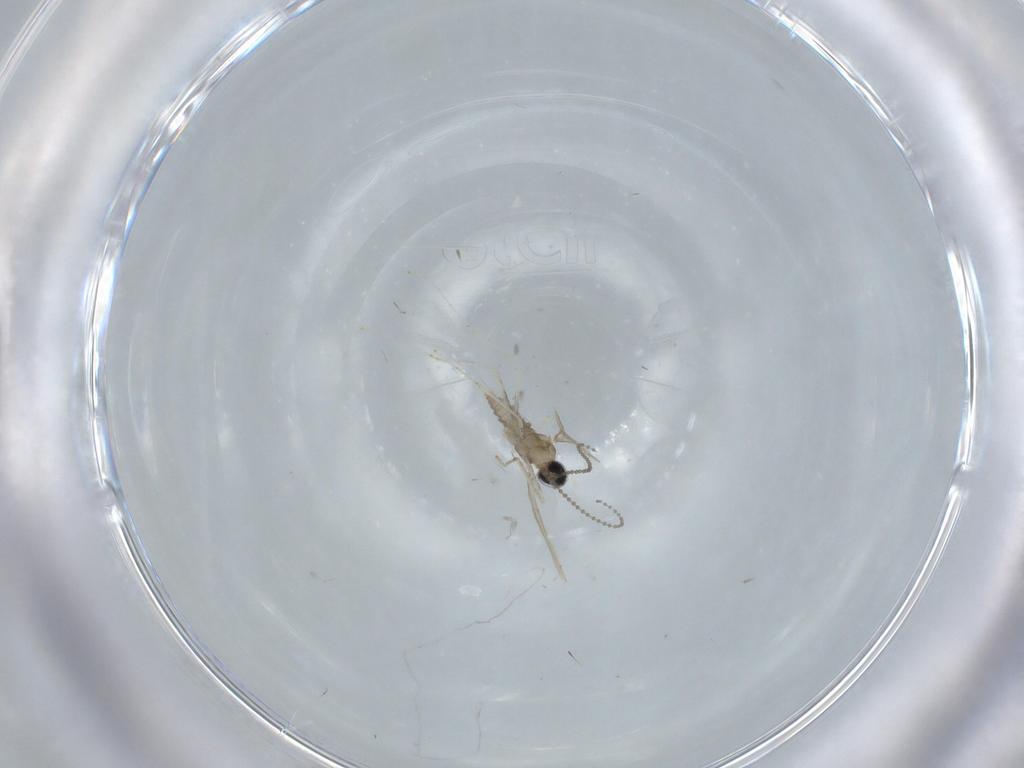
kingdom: Animalia
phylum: Arthropoda
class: Insecta
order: Diptera
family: Cecidomyiidae
